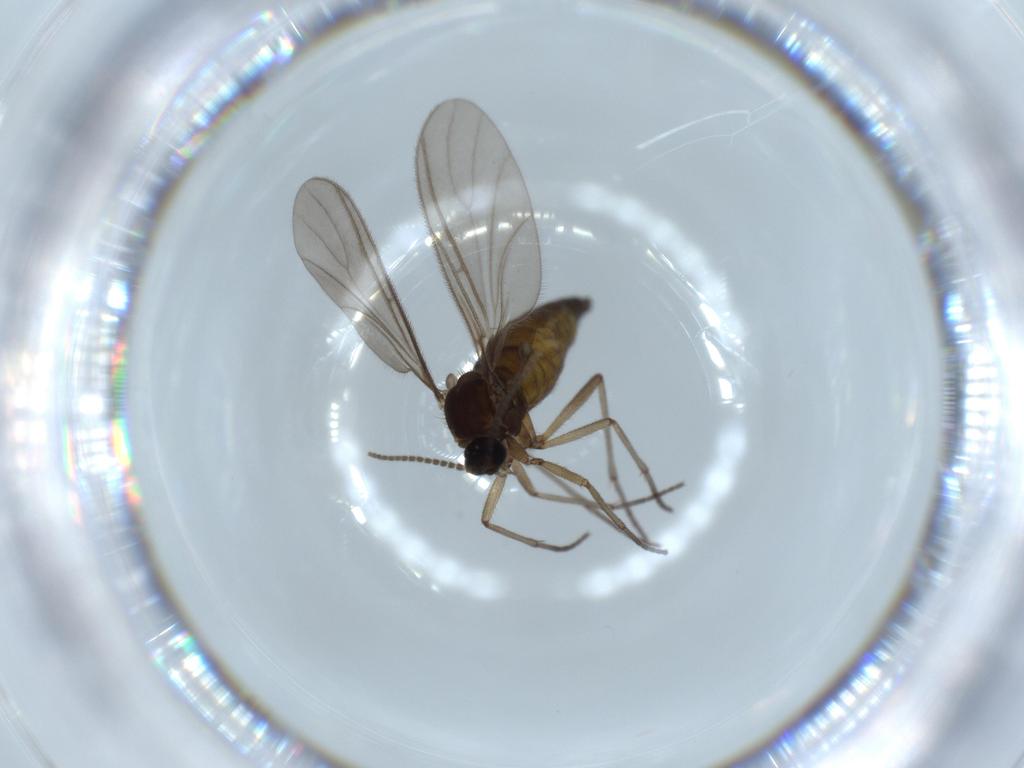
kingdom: Animalia
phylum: Arthropoda
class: Insecta
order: Diptera
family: Sciaridae
